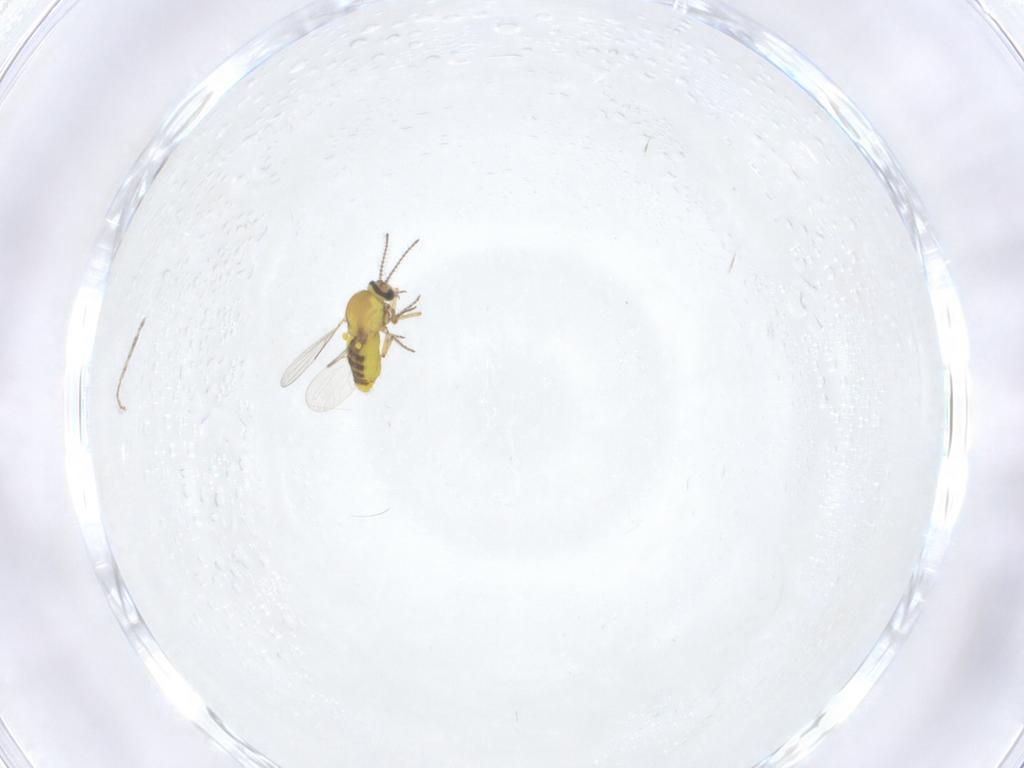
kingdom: Animalia
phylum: Arthropoda
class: Insecta
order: Diptera
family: Ceratopogonidae
